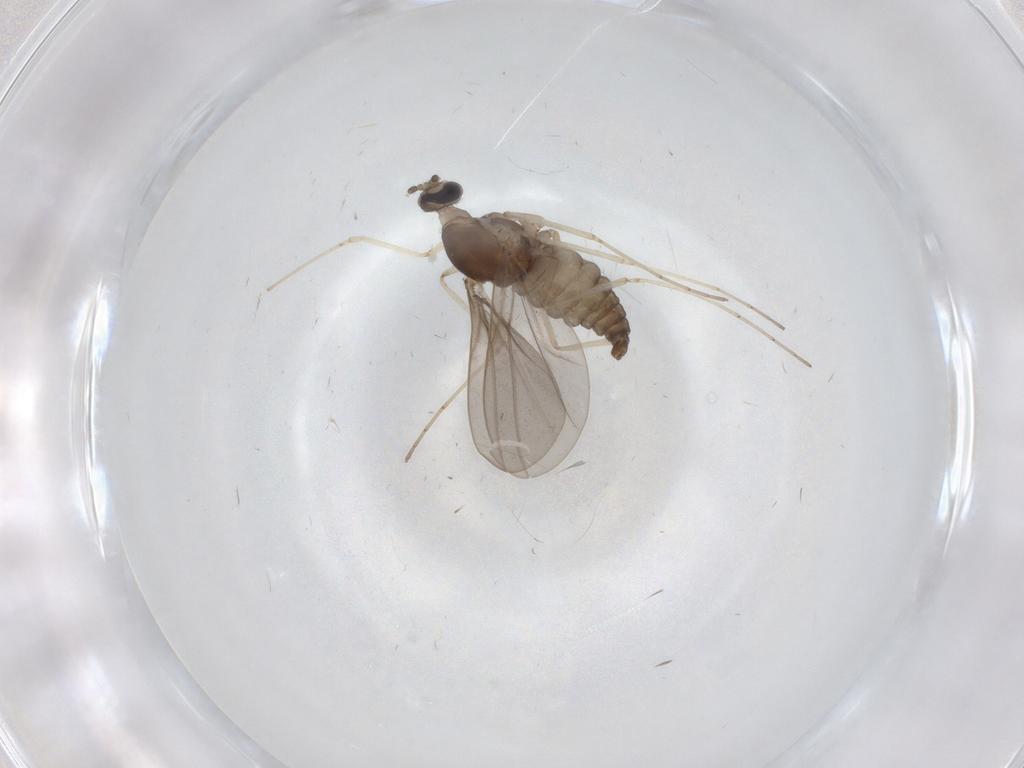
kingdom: Animalia
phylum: Arthropoda
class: Insecta
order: Diptera
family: Cecidomyiidae
